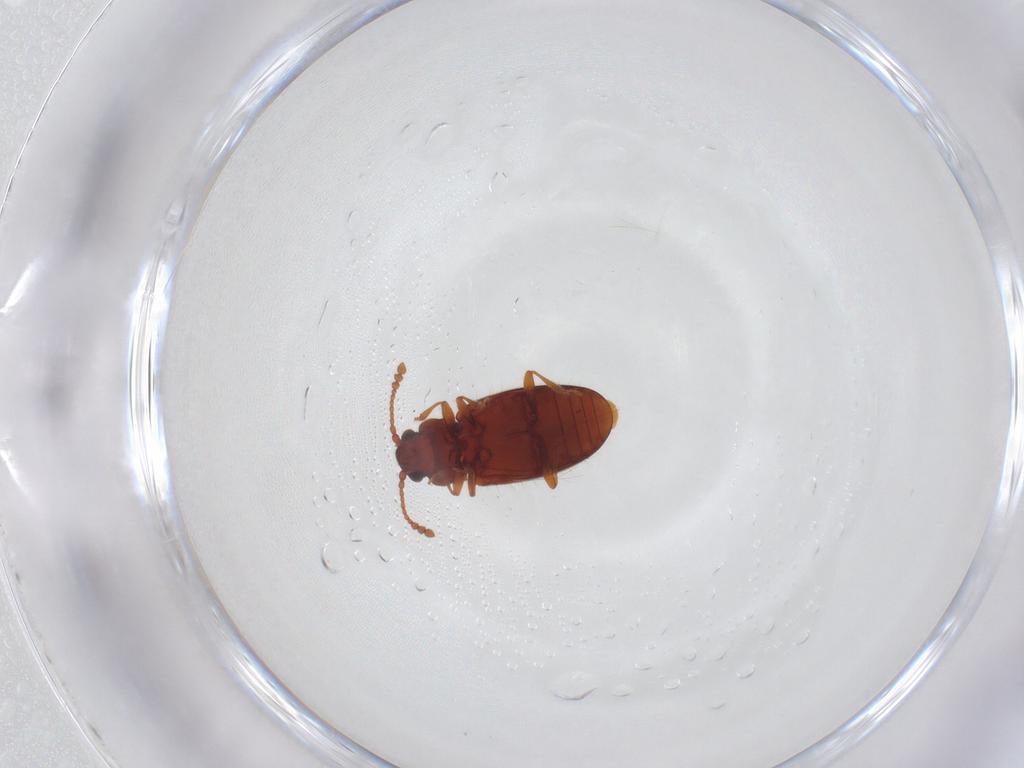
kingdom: Animalia
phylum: Arthropoda
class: Insecta
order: Coleoptera
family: Cryptophagidae
